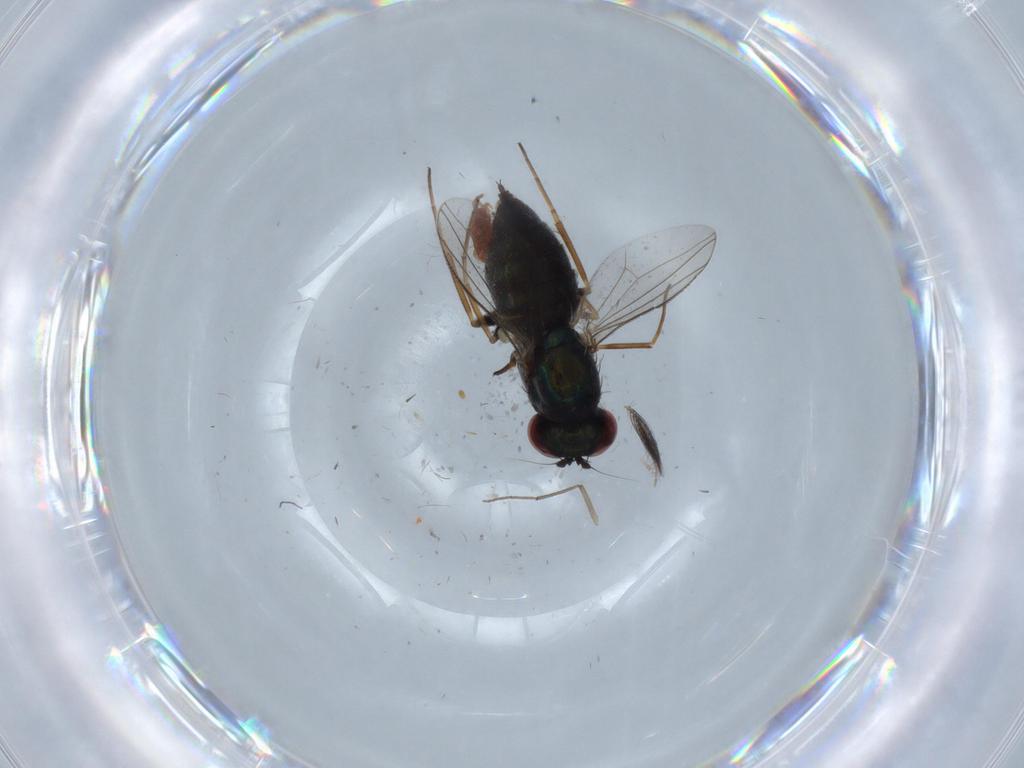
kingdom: Animalia
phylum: Arthropoda
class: Insecta
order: Diptera
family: Dolichopodidae
